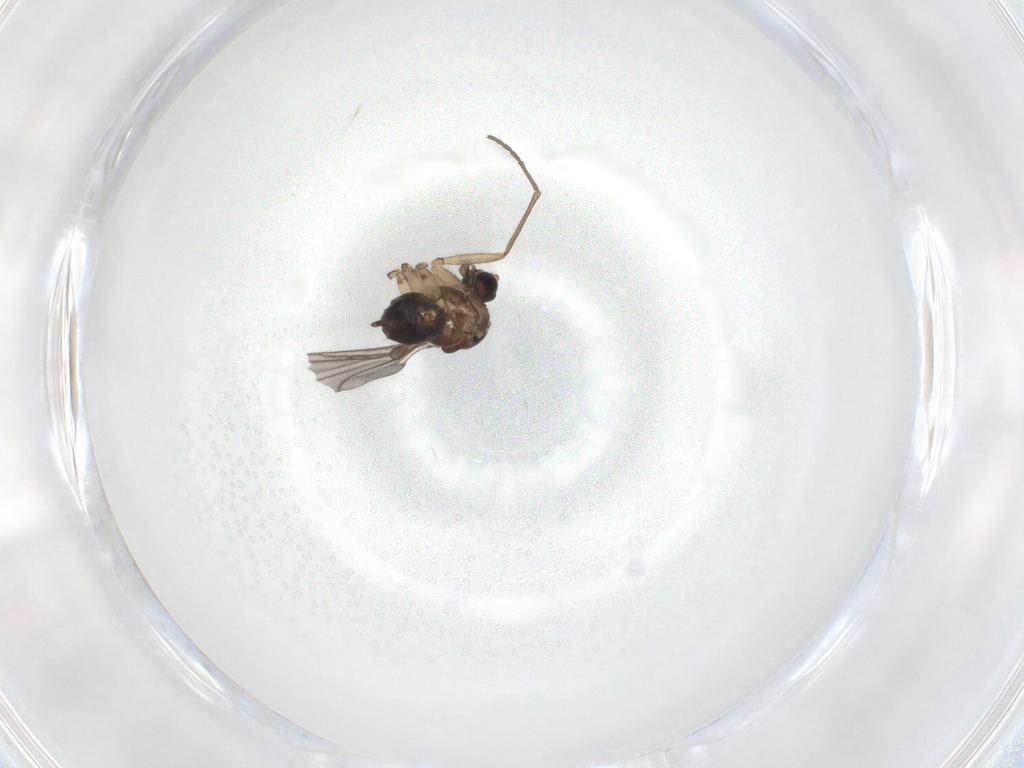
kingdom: Animalia
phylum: Arthropoda
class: Insecta
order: Diptera
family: Sciaridae
